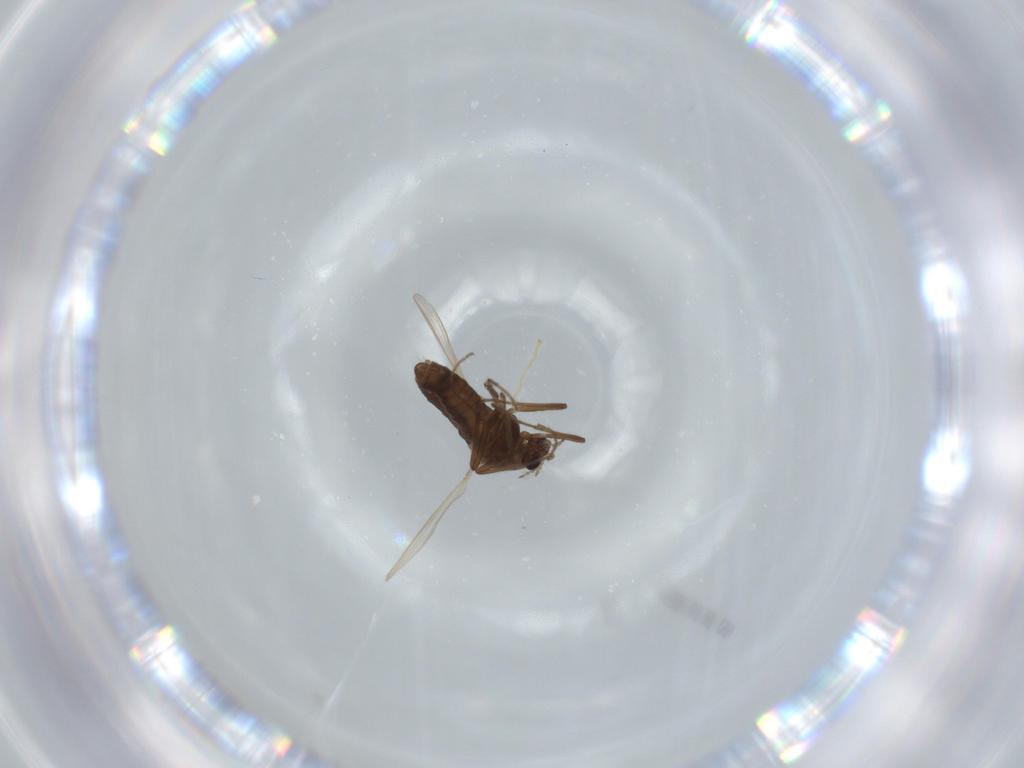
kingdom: Animalia
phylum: Arthropoda
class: Insecta
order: Diptera
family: Chironomidae
